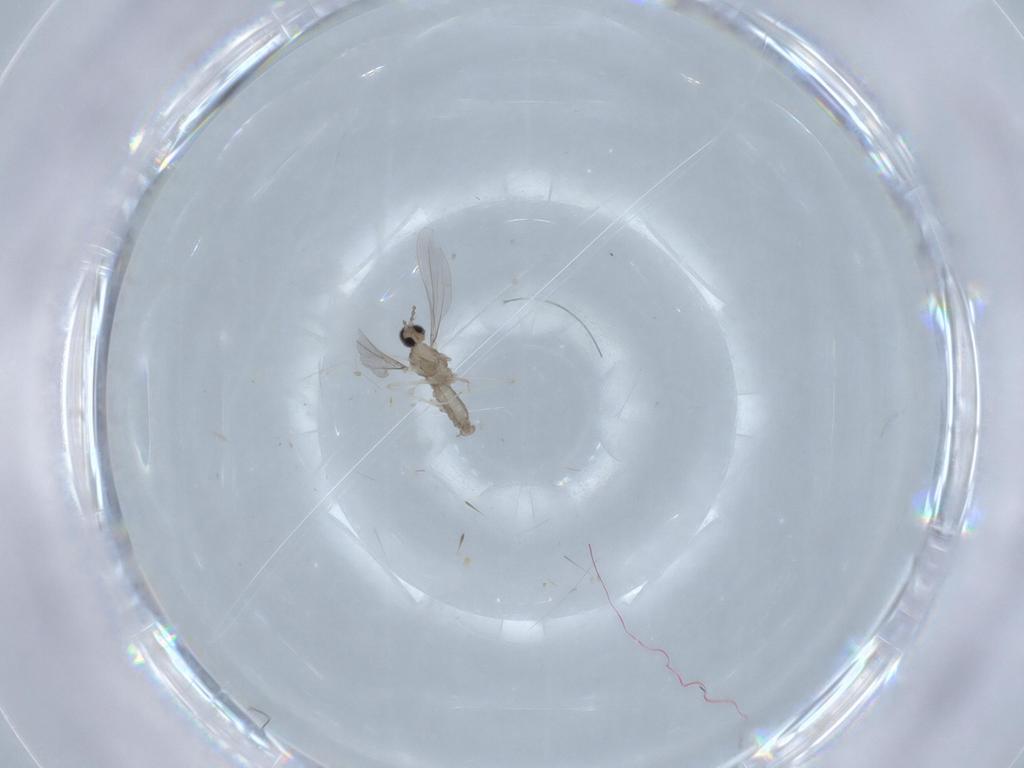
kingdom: Animalia
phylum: Arthropoda
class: Insecta
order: Diptera
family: Cecidomyiidae
